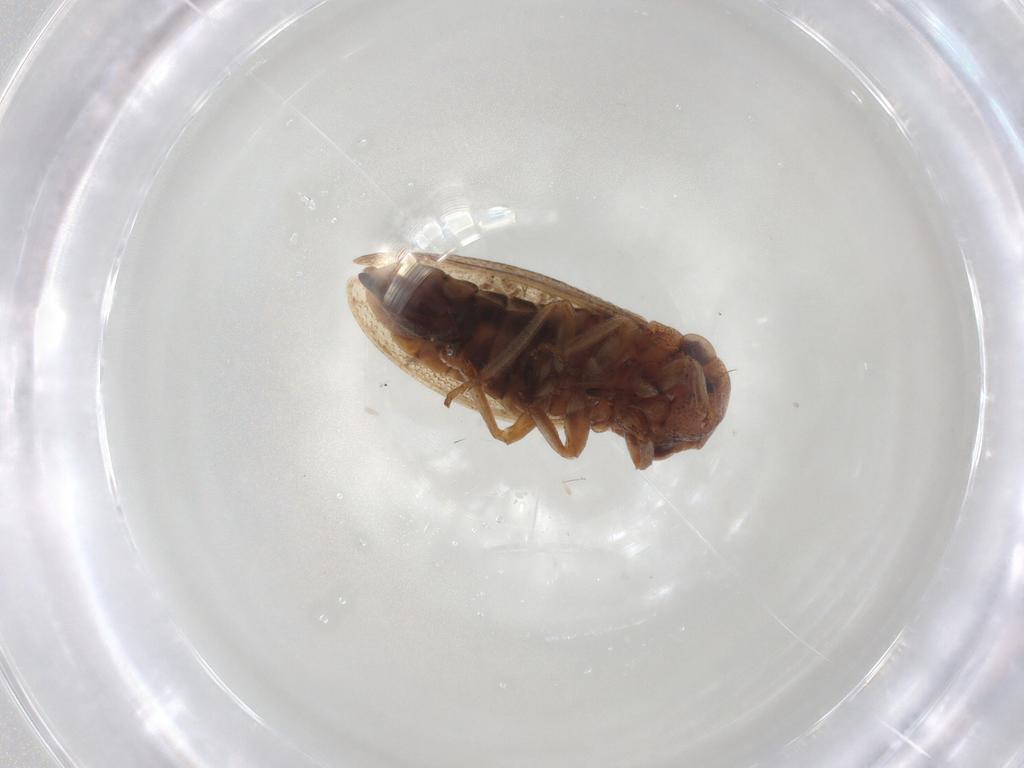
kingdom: Animalia
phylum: Arthropoda
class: Insecta
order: Hemiptera
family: Cicadellidae
